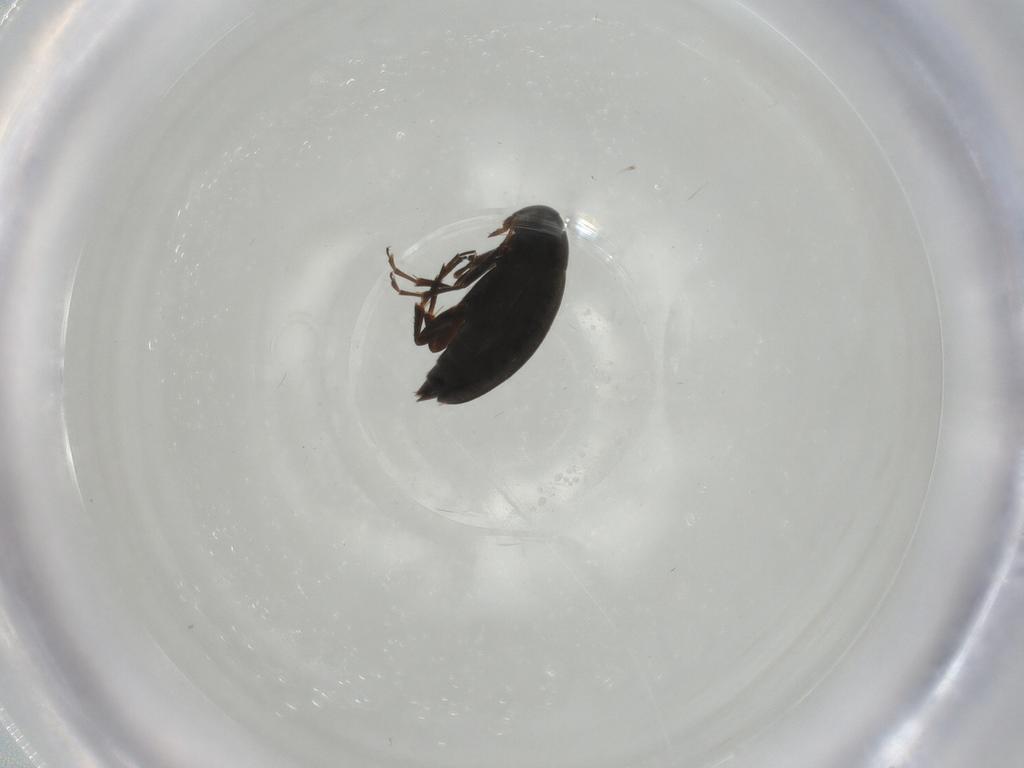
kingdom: Animalia
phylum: Arthropoda
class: Insecta
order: Coleoptera
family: Scraptiidae
